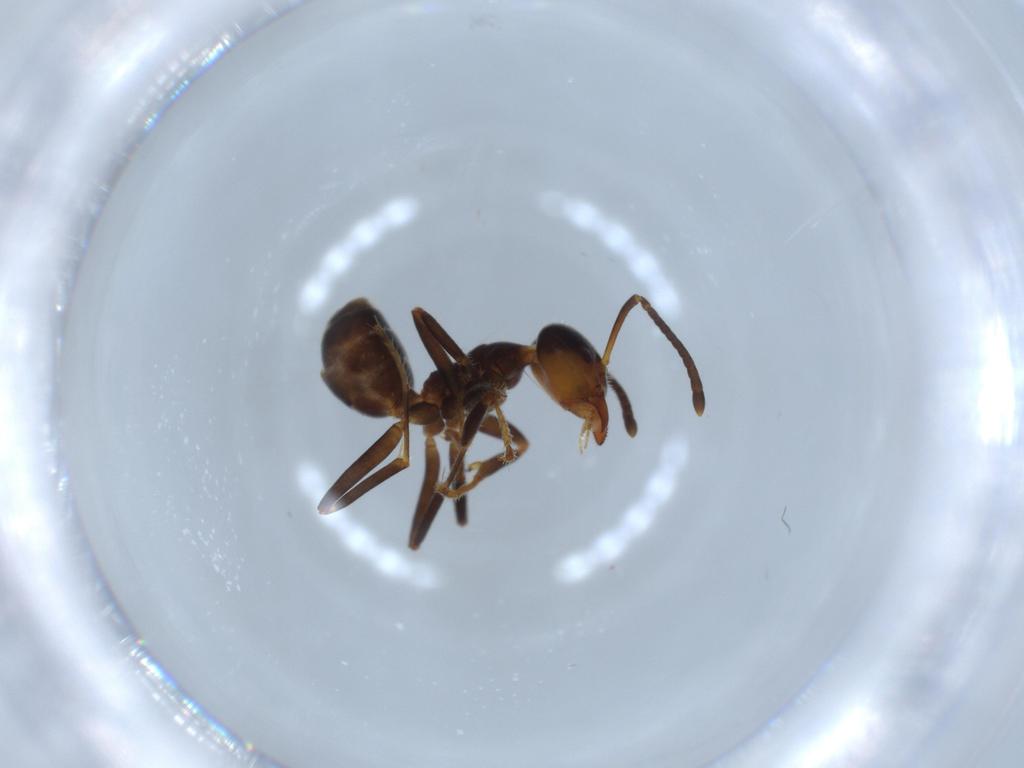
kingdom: Animalia
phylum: Arthropoda
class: Insecta
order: Hymenoptera
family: Formicidae
